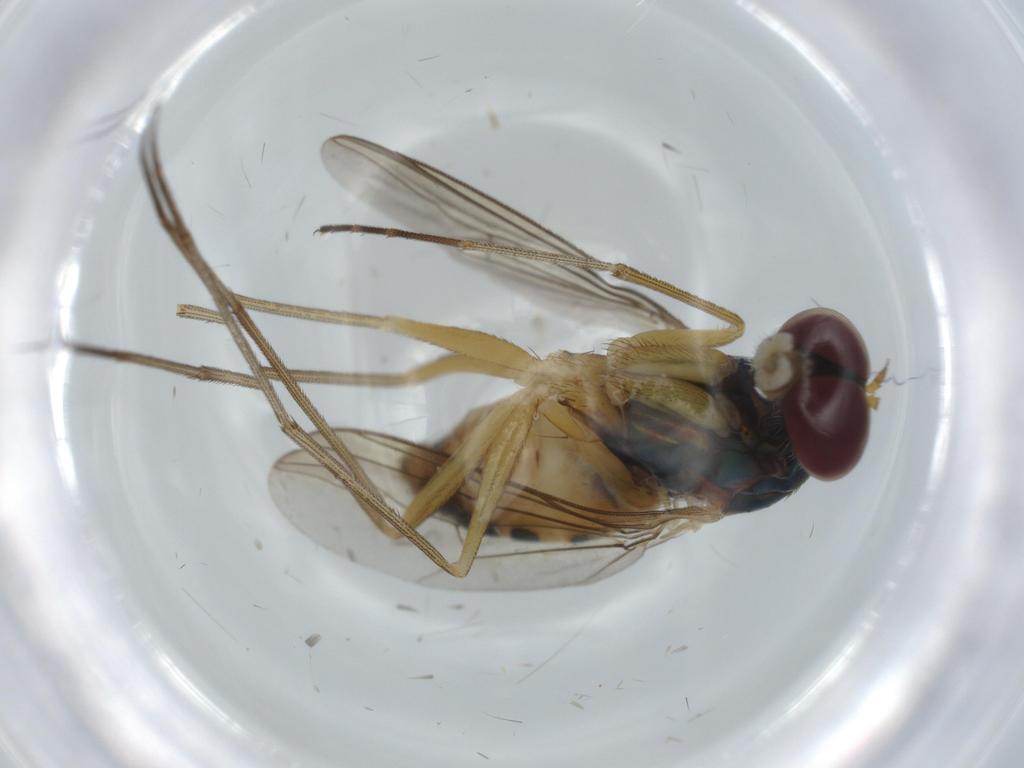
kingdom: Animalia
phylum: Arthropoda
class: Insecta
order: Diptera
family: Dolichopodidae
